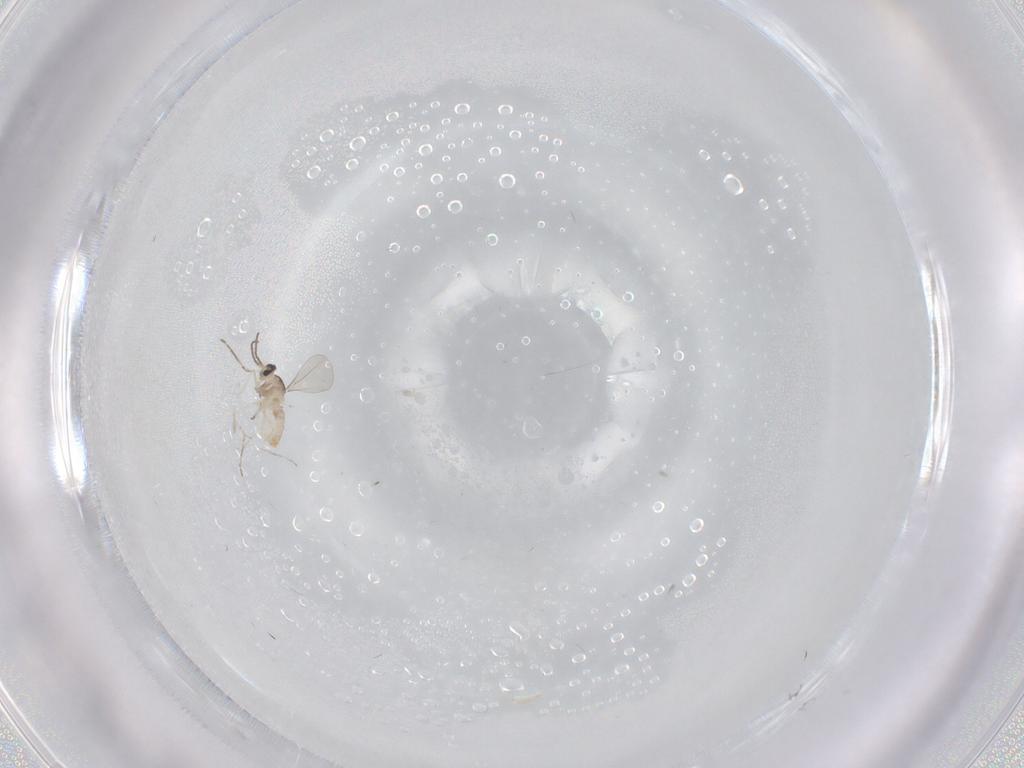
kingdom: Animalia
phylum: Arthropoda
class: Insecta
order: Diptera
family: Cecidomyiidae
